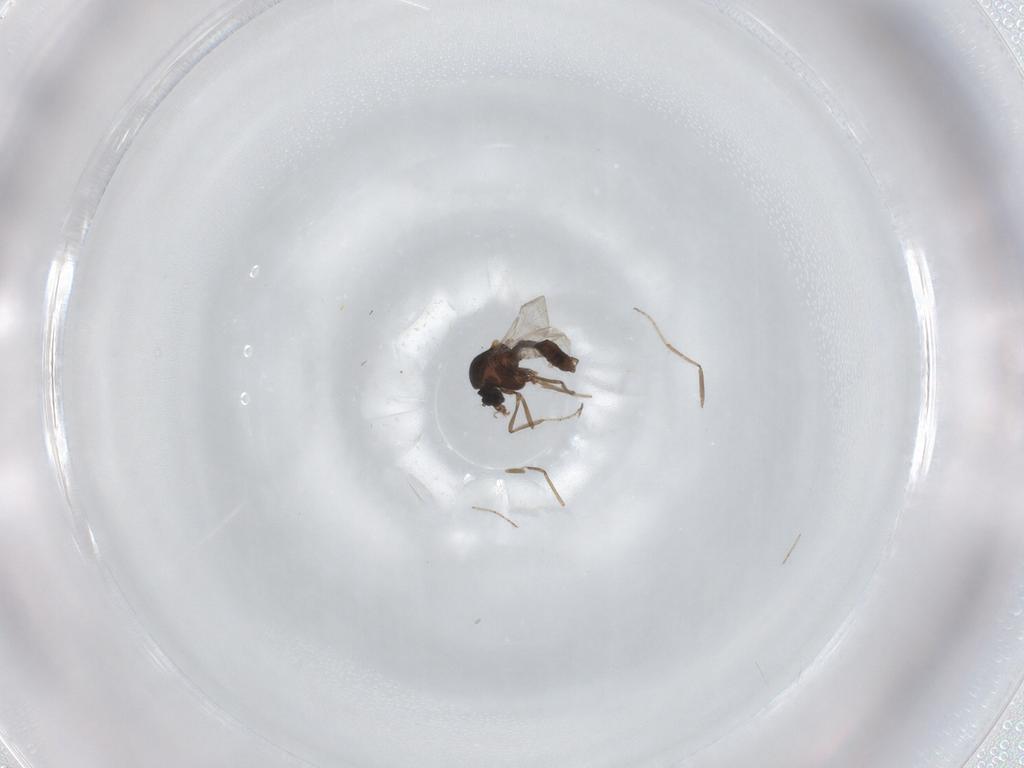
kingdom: Animalia
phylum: Arthropoda
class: Insecta
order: Diptera
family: Ceratopogonidae
